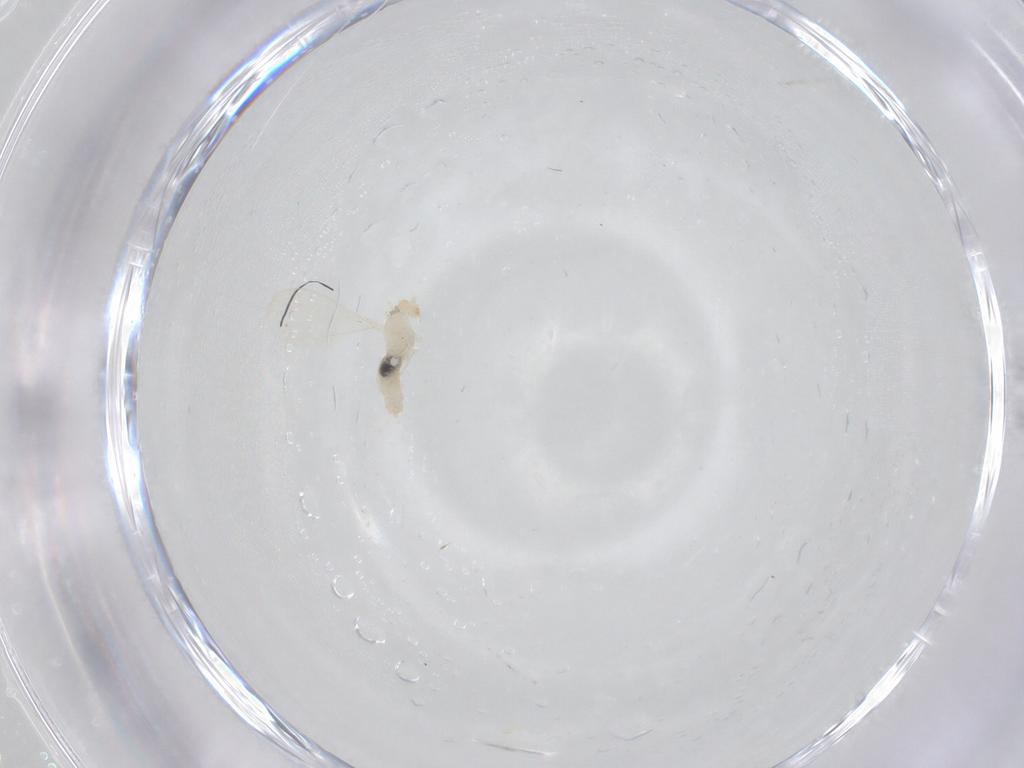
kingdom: Animalia
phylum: Arthropoda
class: Insecta
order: Diptera
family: Cecidomyiidae
